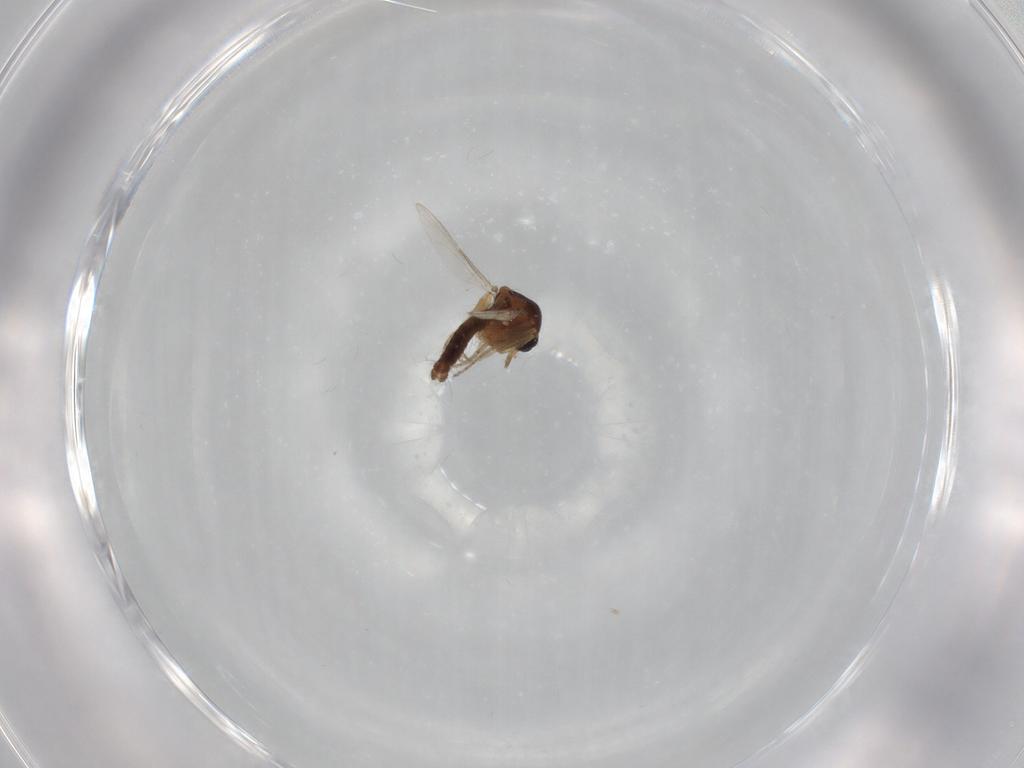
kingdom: Animalia
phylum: Arthropoda
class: Insecta
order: Diptera
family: Ceratopogonidae
